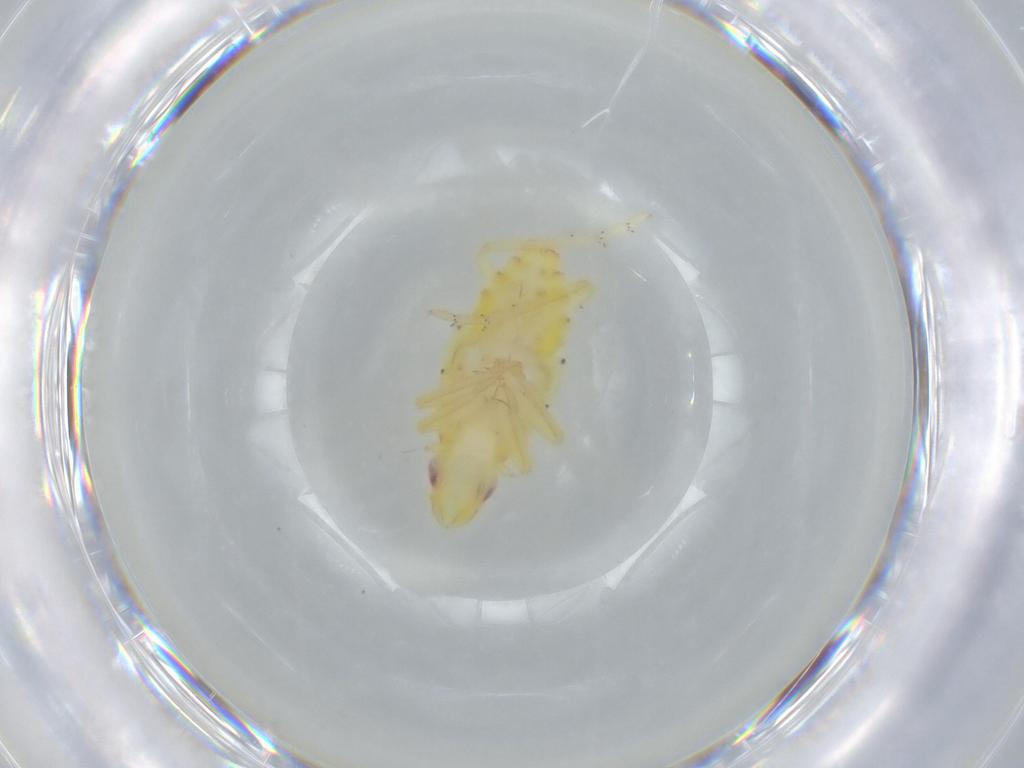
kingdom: Animalia
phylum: Arthropoda
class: Insecta
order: Hemiptera
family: Tropiduchidae
